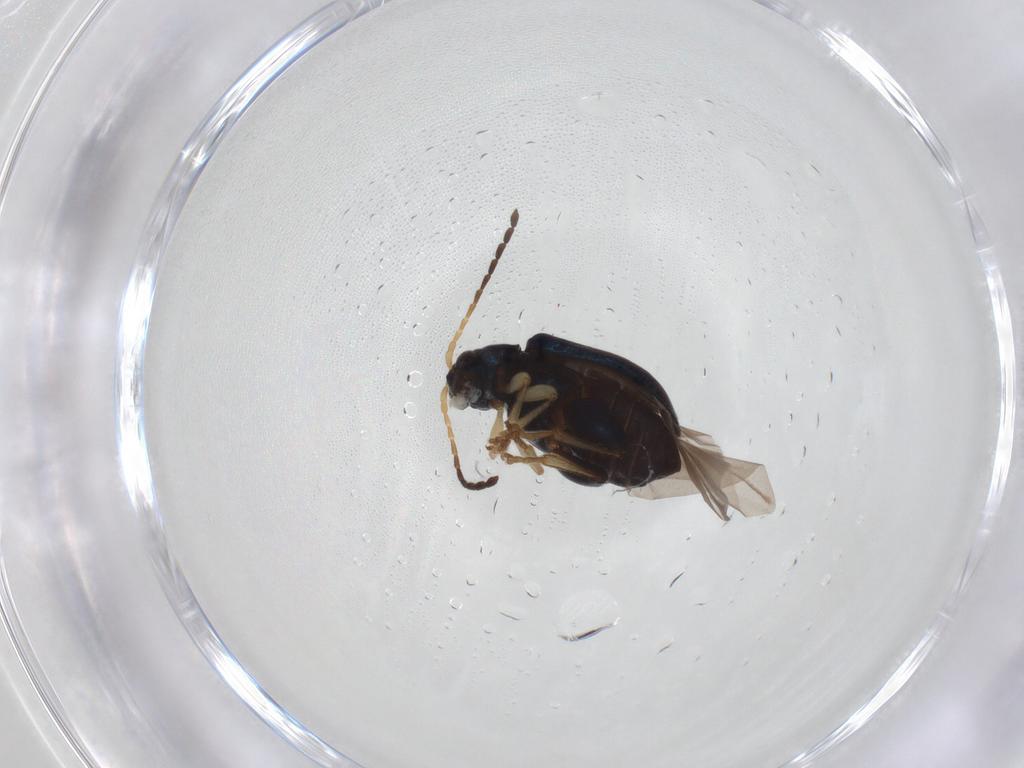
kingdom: Animalia
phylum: Arthropoda
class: Insecta
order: Coleoptera
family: Chrysomelidae
